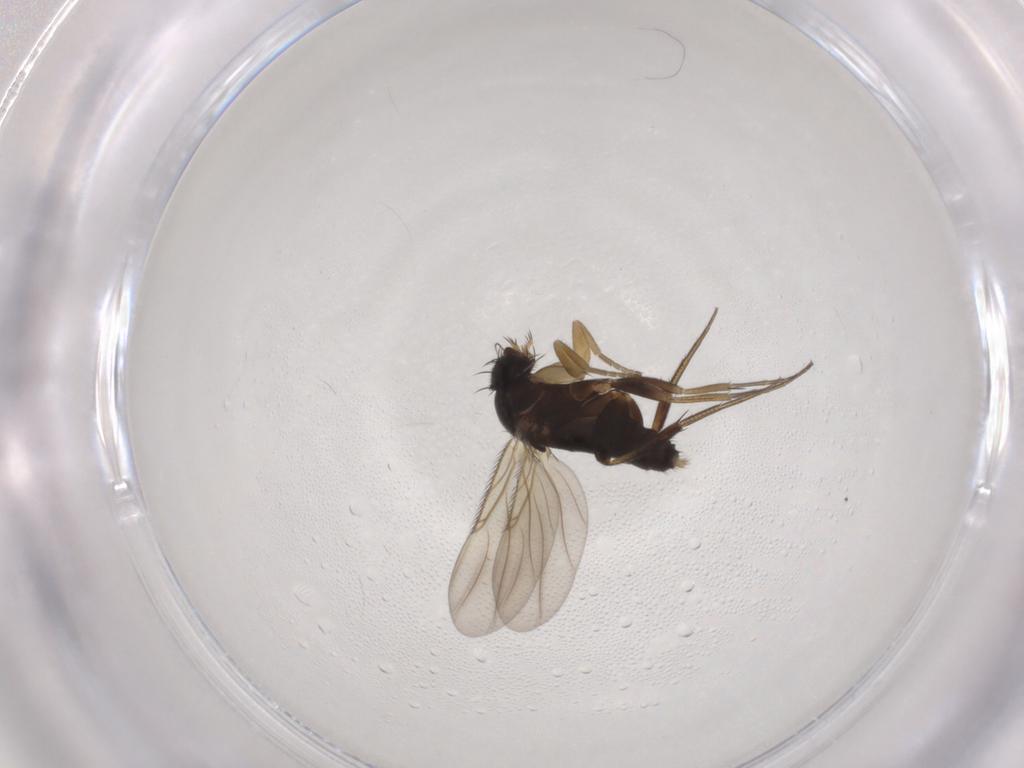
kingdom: Animalia
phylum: Arthropoda
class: Insecta
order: Diptera
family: Phoridae
